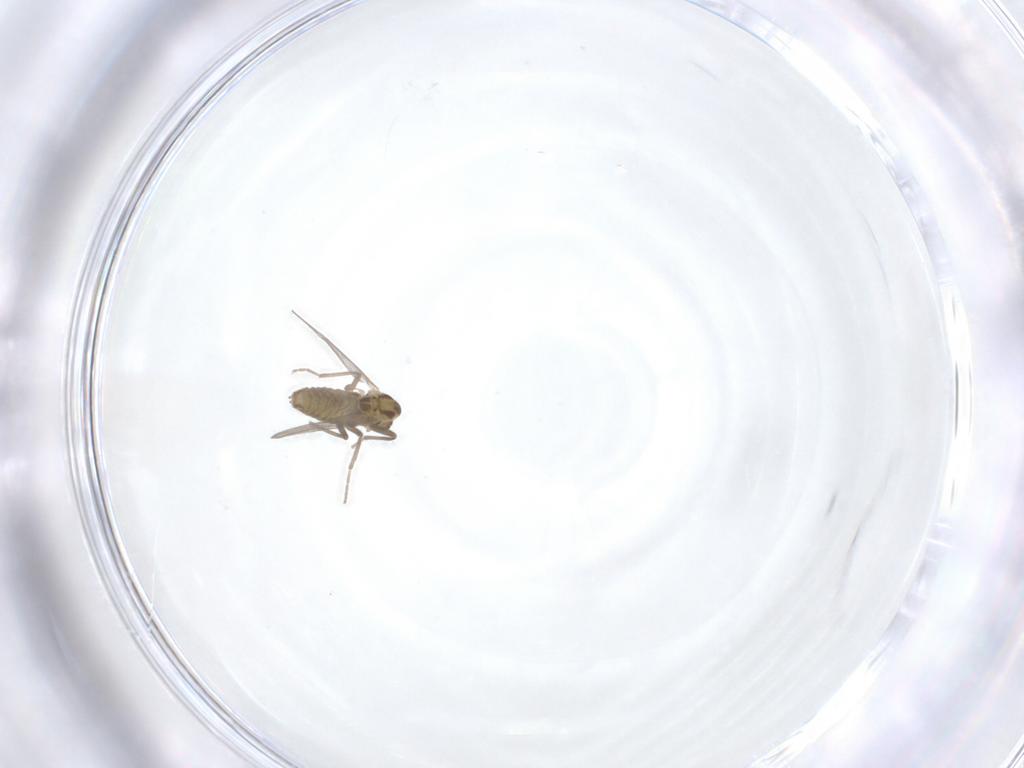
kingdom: Animalia
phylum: Arthropoda
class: Insecta
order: Diptera
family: Chironomidae
